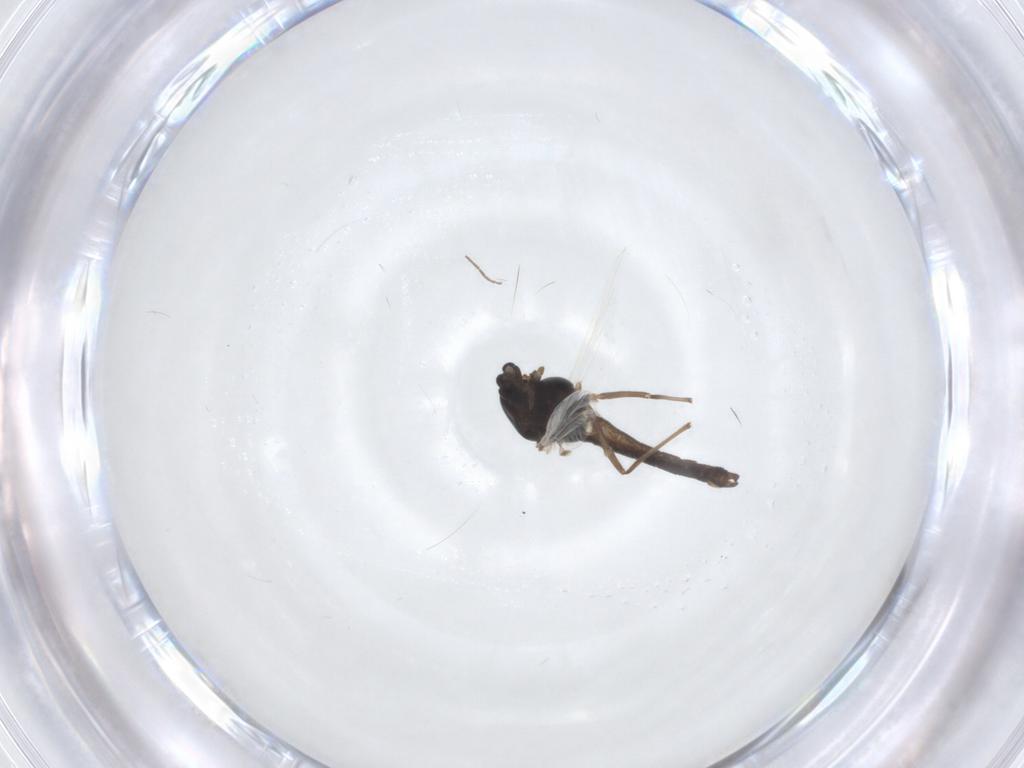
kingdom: Animalia
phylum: Arthropoda
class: Insecta
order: Diptera
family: Chironomidae
